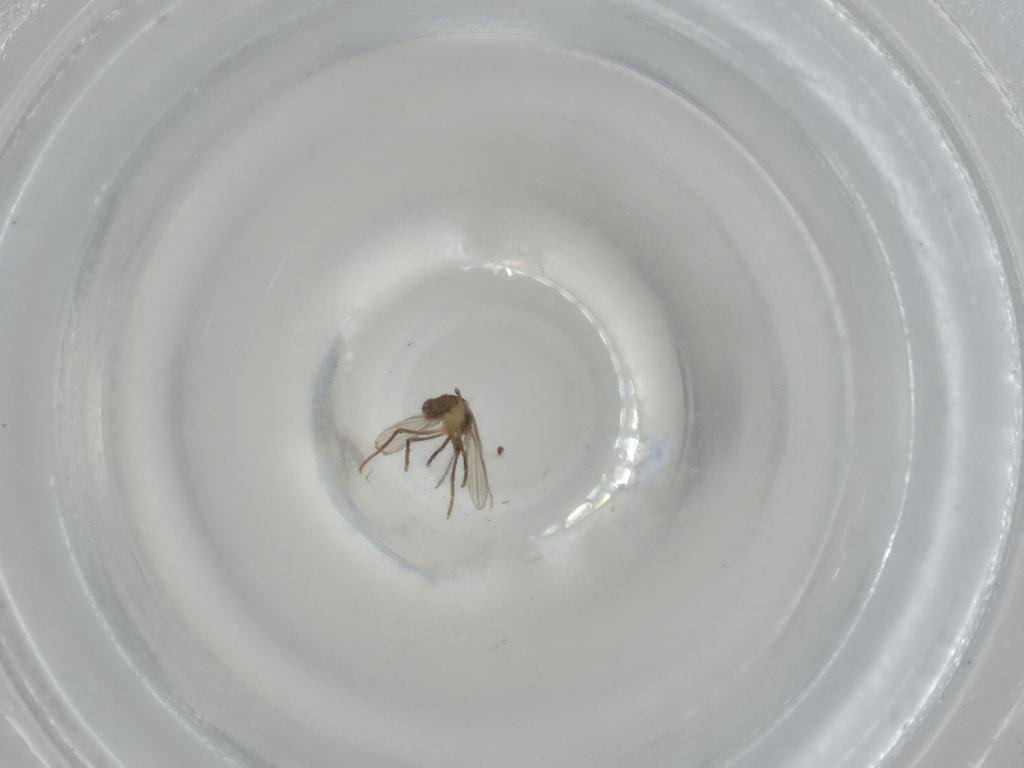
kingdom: Animalia
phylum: Arthropoda
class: Insecta
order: Diptera
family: Psychodidae
